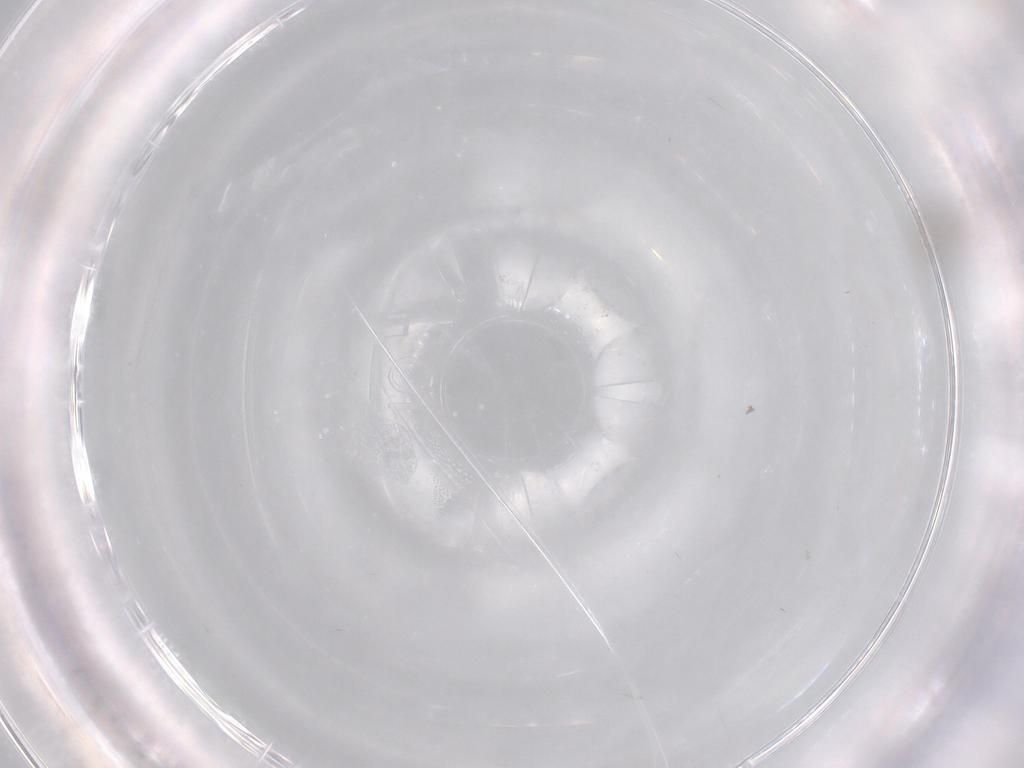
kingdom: Animalia
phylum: Arthropoda
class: Insecta
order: Diptera
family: Cecidomyiidae
